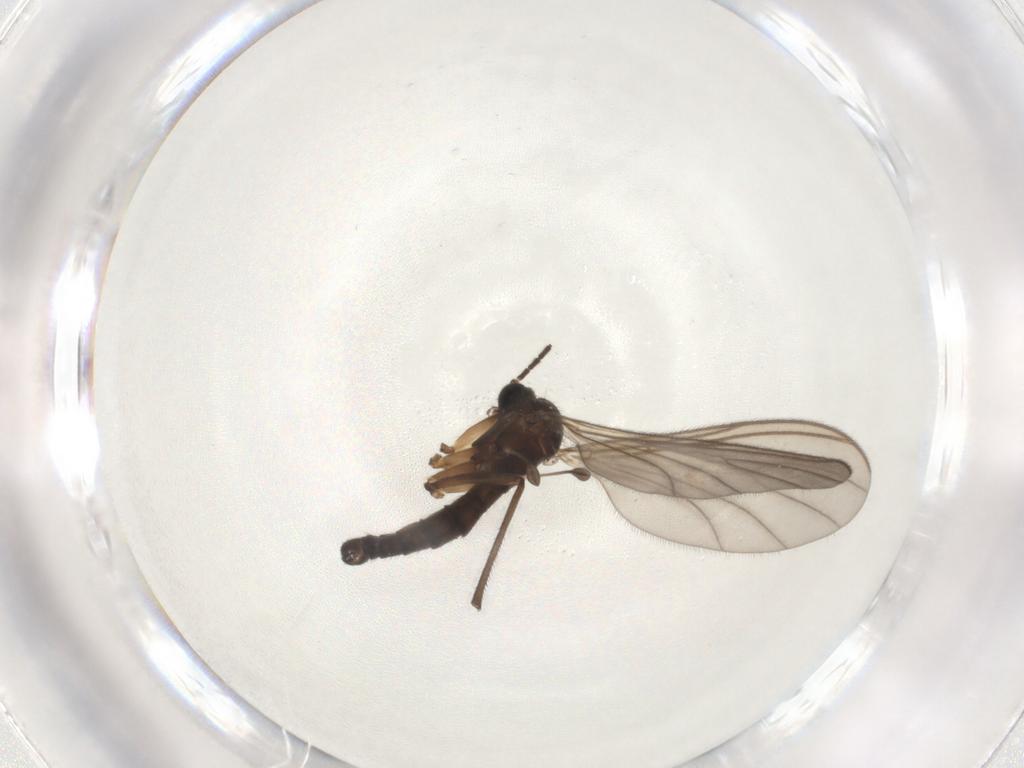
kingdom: Animalia
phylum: Arthropoda
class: Insecta
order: Diptera
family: Sciaridae
